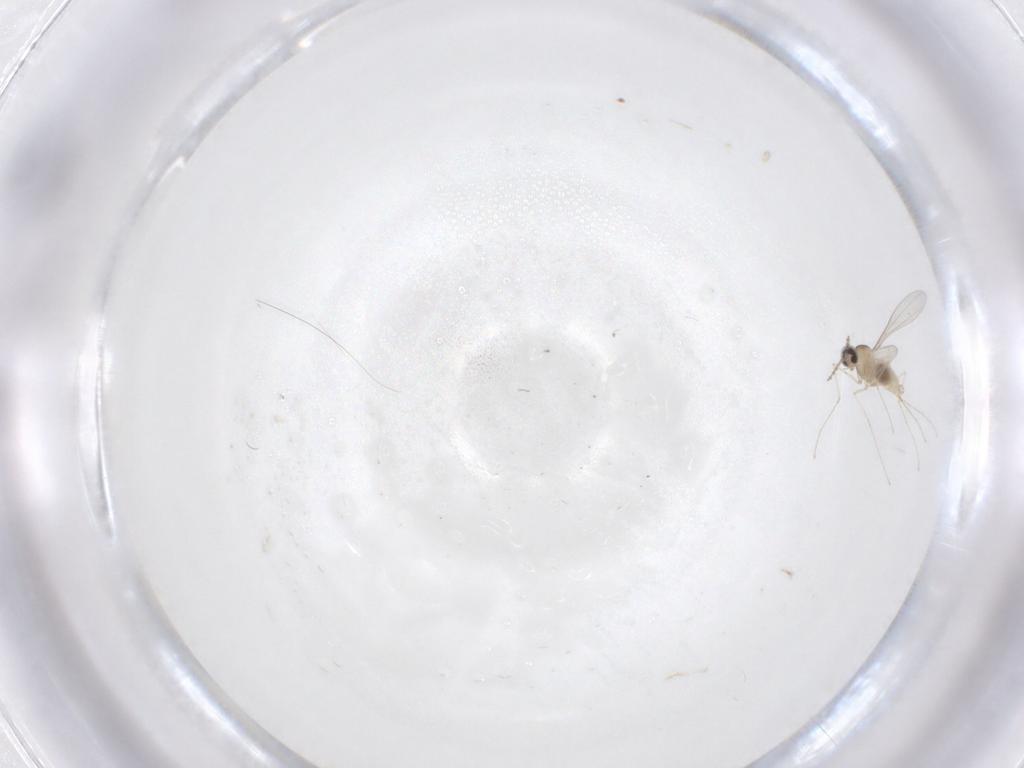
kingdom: Animalia
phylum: Arthropoda
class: Insecta
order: Diptera
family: Cecidomyiidae
